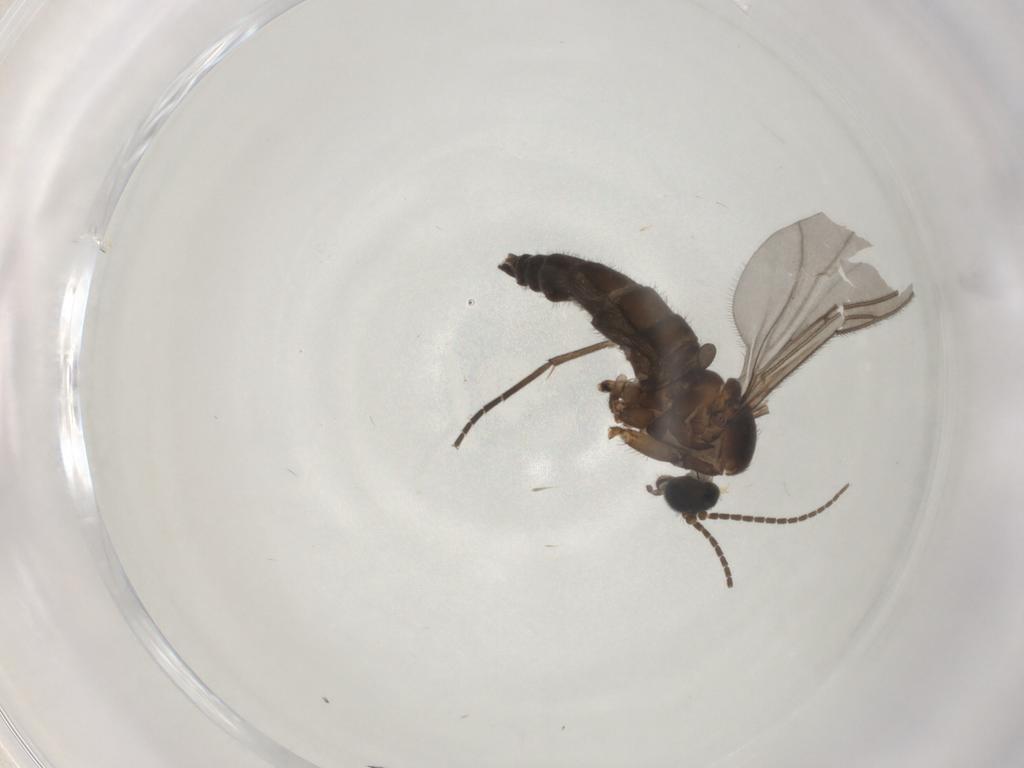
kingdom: Animalia
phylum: Arthropoda
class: Insecta
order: Diptera
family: Sciaridae
